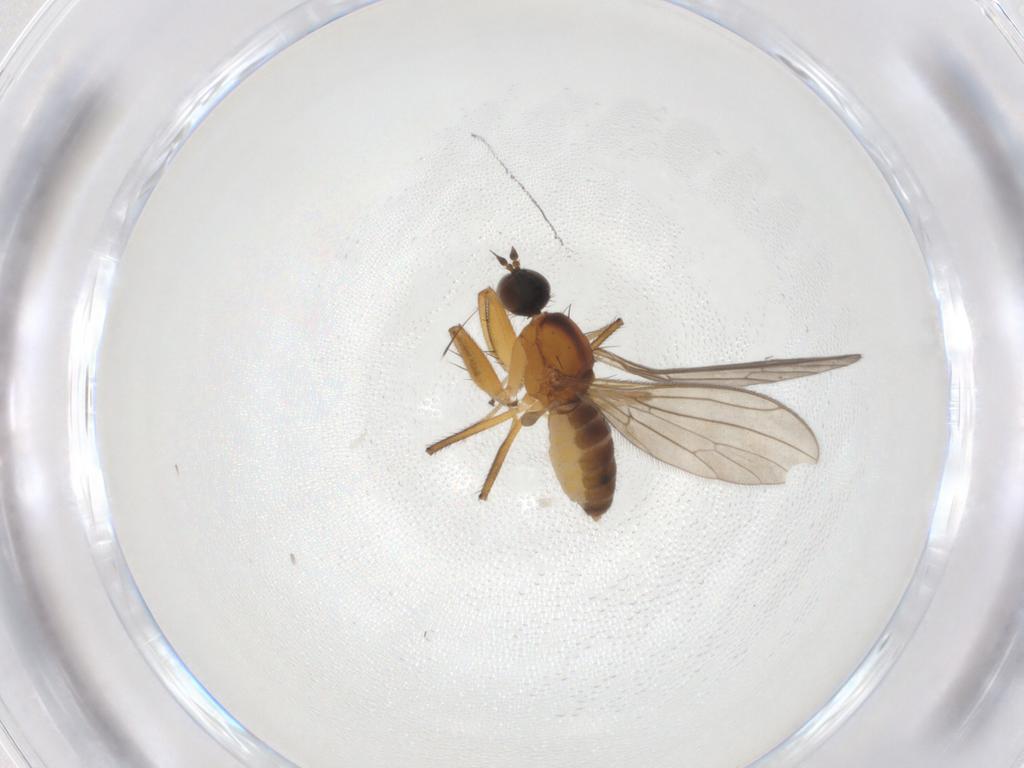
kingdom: Animalia
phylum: Arthropoda
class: Insecta
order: Diptera
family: Empididae
